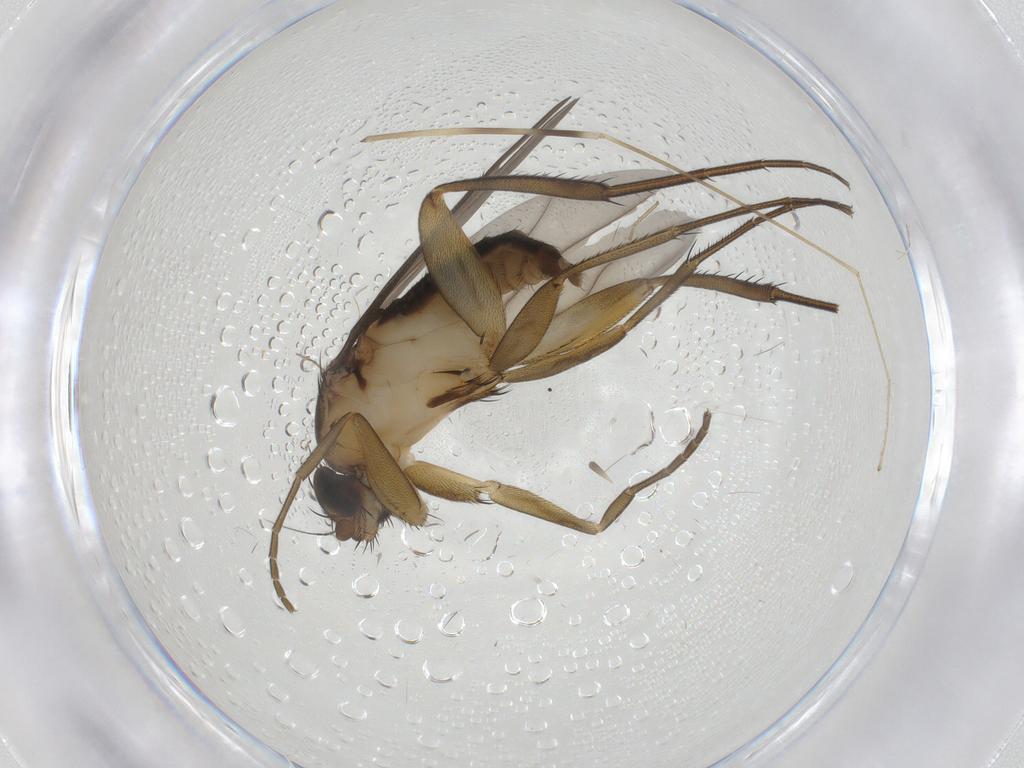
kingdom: Animalia
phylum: Arthropoda
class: Insecta
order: Diptera
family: Limoniidae
